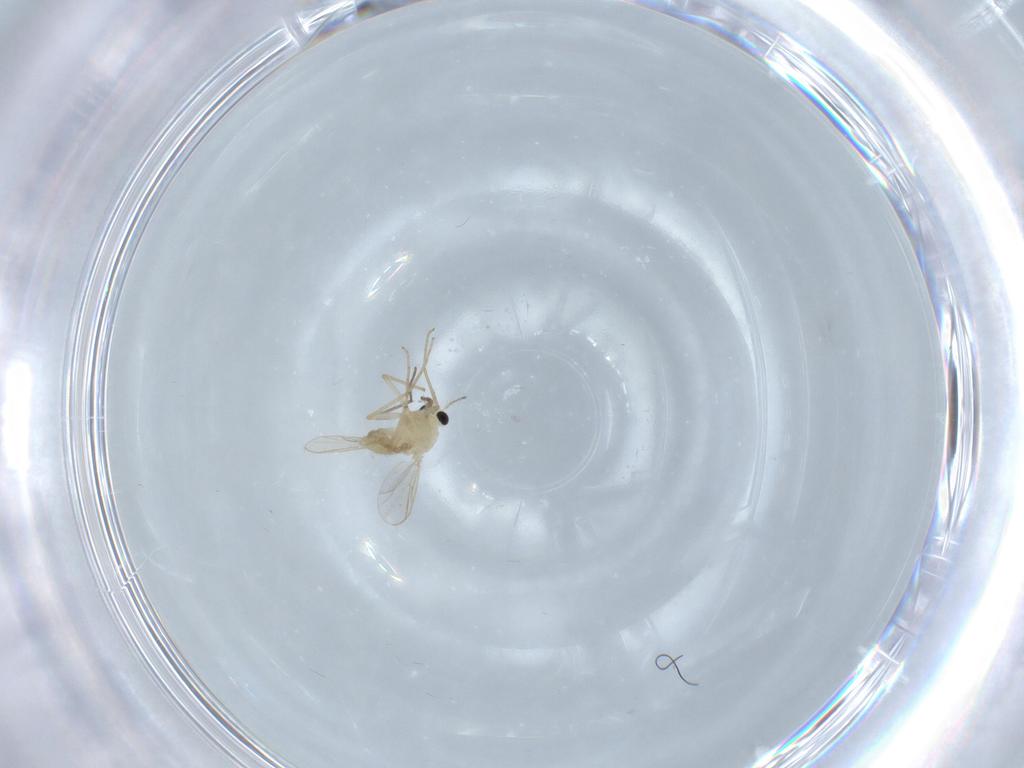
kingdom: Animalia
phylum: Arthropoda
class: Insecta
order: Diptera
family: Chironomidae
